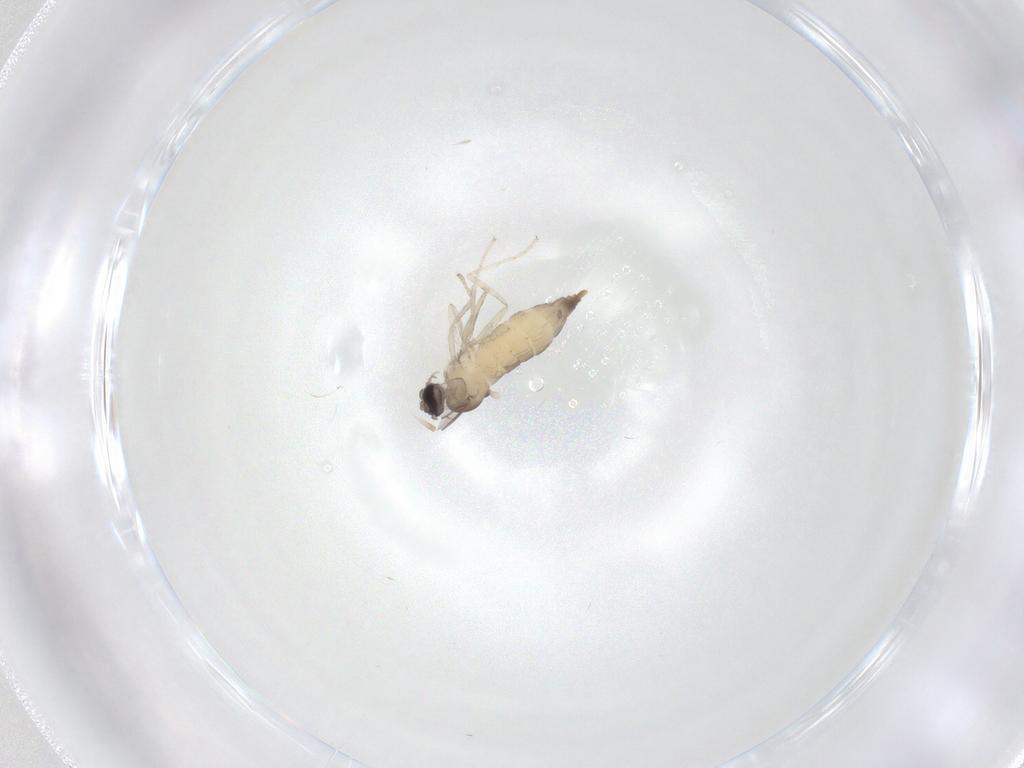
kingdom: Animalia
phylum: Arthropoda
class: Insecta
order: Diptera
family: Cecidomyiidae
